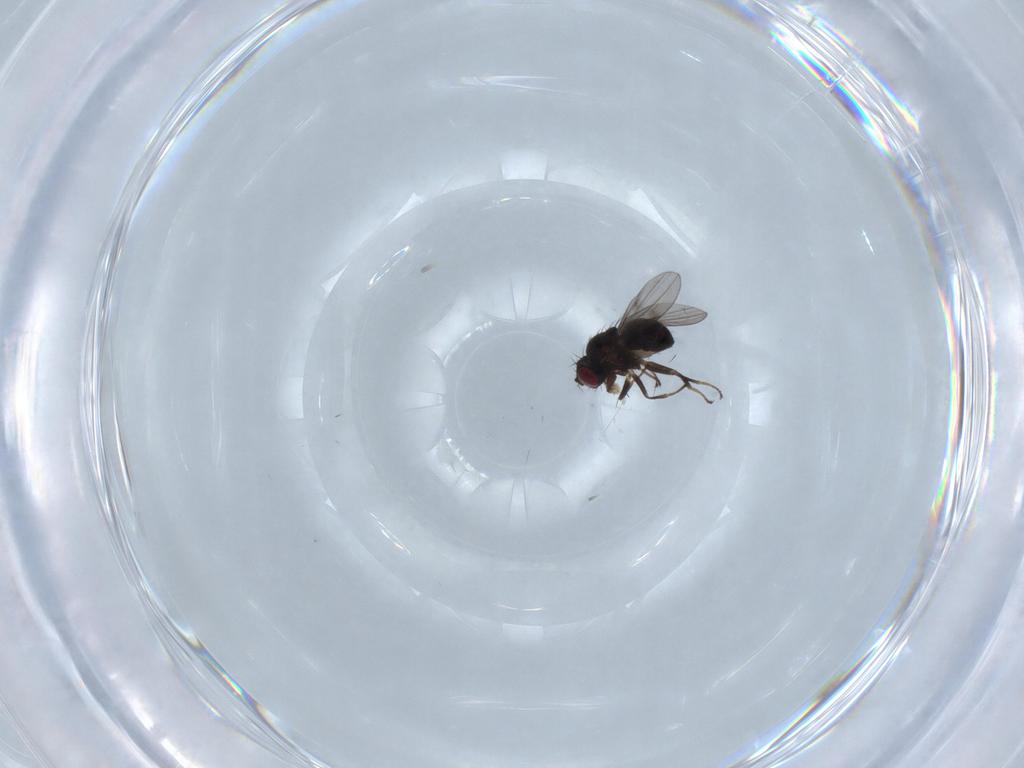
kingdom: Animalia
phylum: Arthropoda
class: Insecta
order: Diptera
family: Ephydridae
